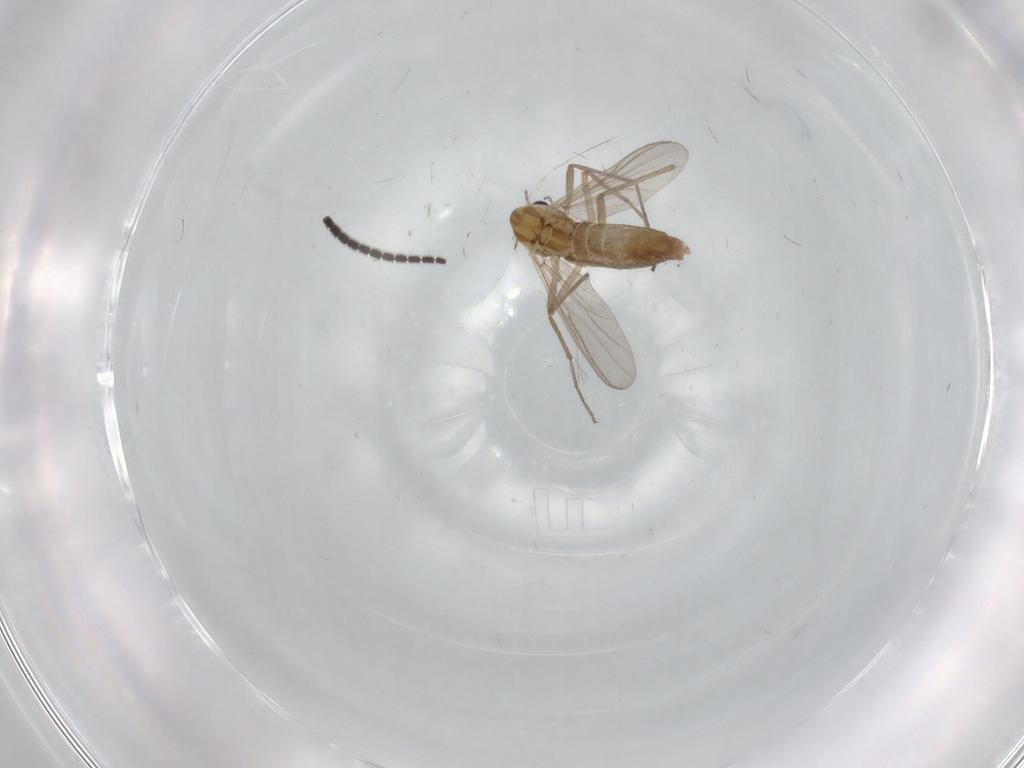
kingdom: Animalia
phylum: Arthropoda
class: Insecta
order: Diptera
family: Chironomidae
